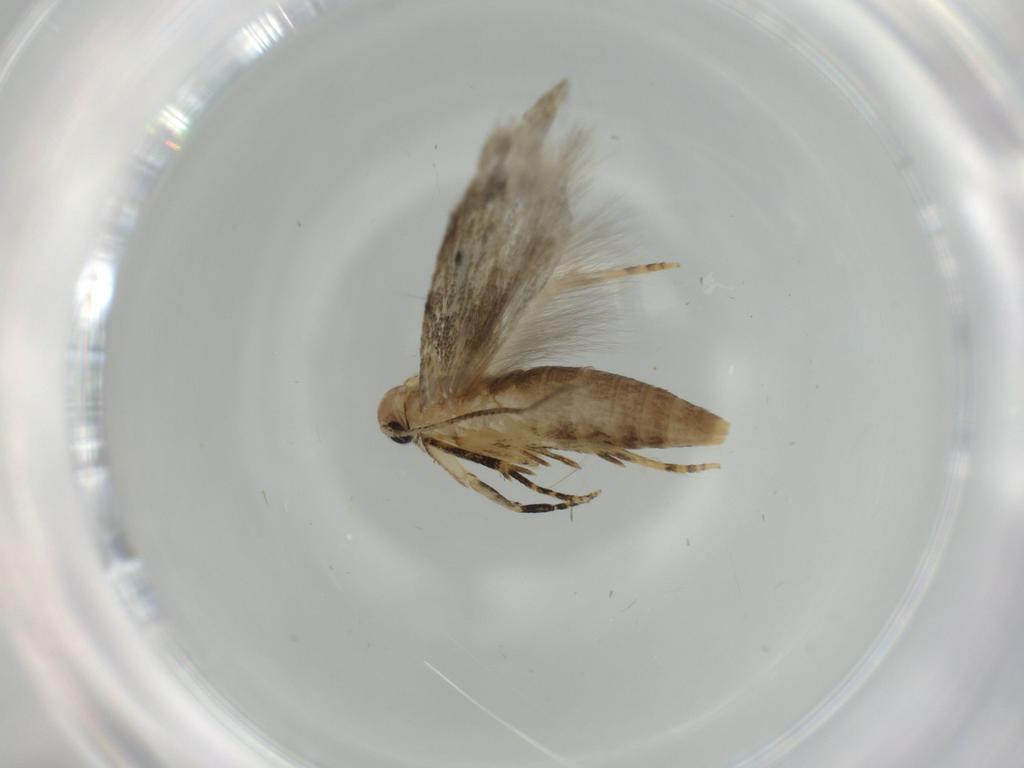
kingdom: Animalia
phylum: Arthropoda
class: Insecta
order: Lepidoptera
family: Gelechiidae
